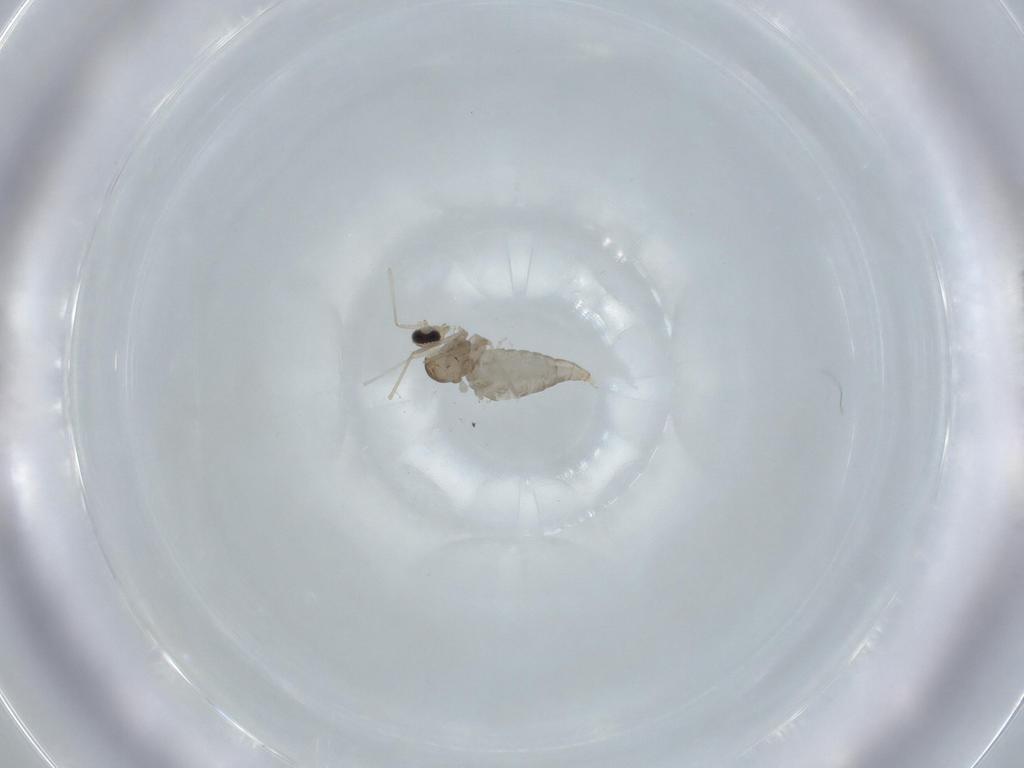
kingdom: Animalia
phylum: Arthropoda
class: Insecta
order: Diptera
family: Cecidomyiidae
